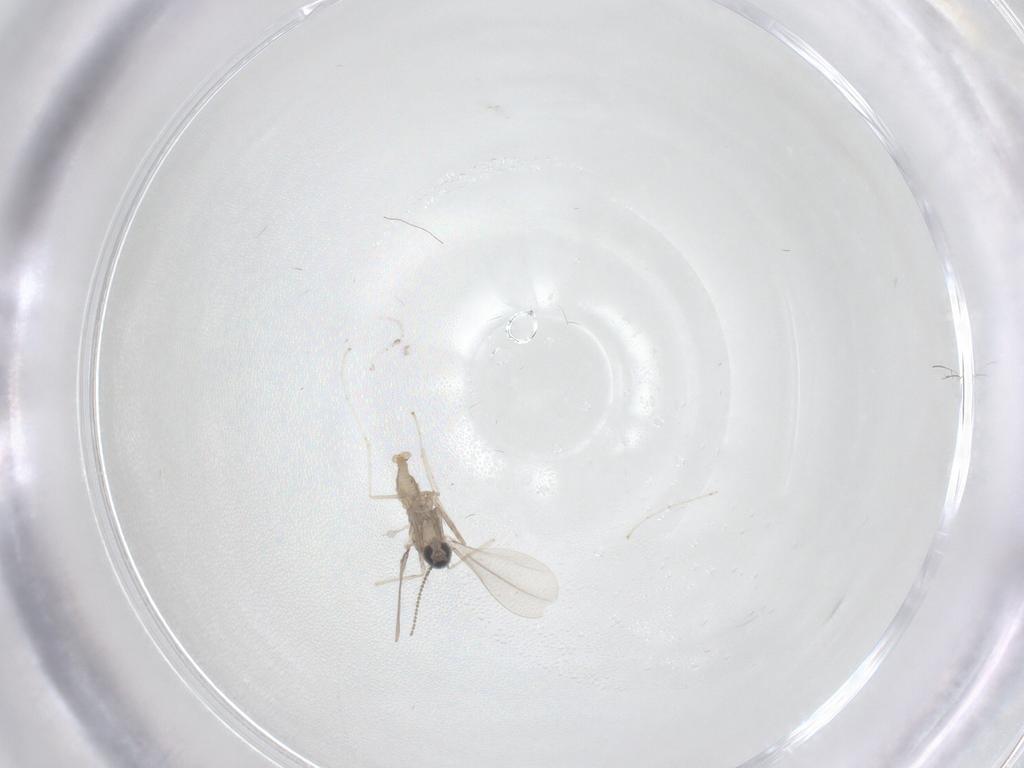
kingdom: Animalia
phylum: Arthropoda
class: Insecta
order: Diptera
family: Cecidomyiidae
